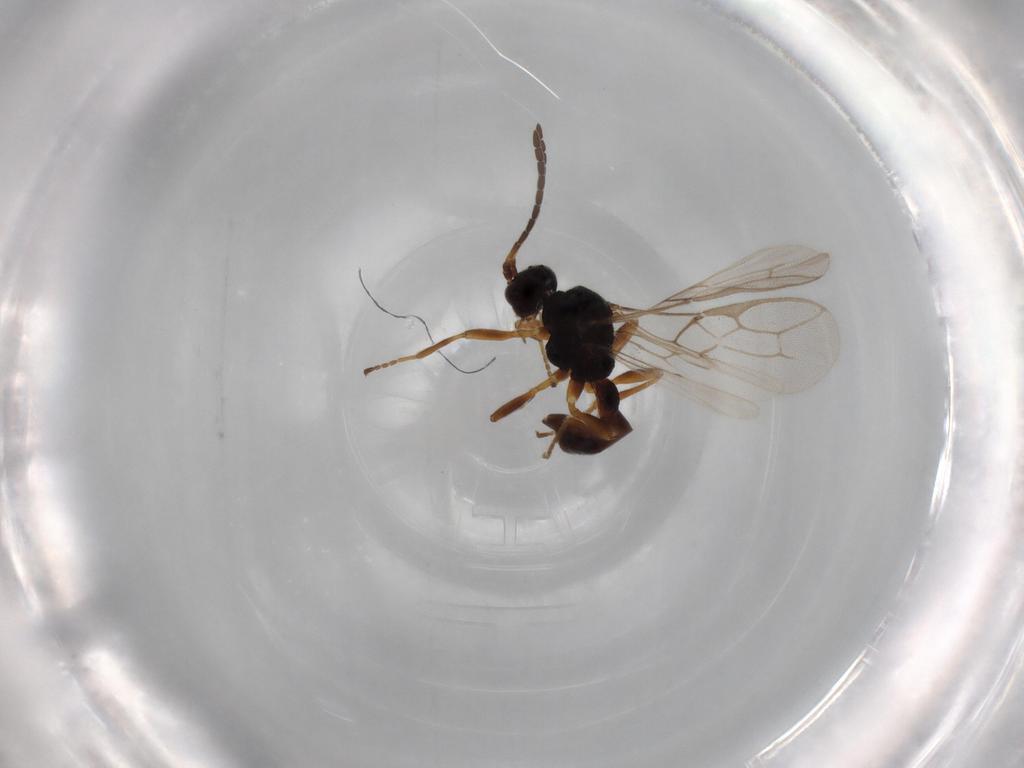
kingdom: Animalia
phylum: Arthropoda
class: Insecta
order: Hymenoptera
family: Braconidae
